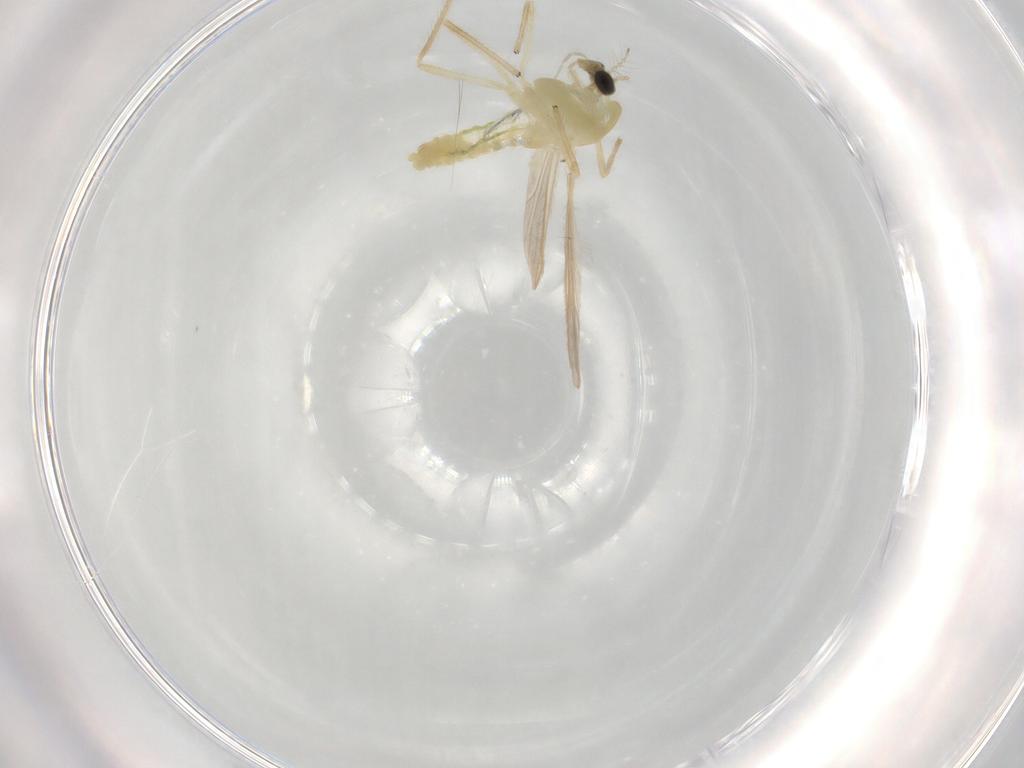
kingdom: Animalia
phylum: Arthropoda
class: Insecta
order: Diptera
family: Chironomidae
